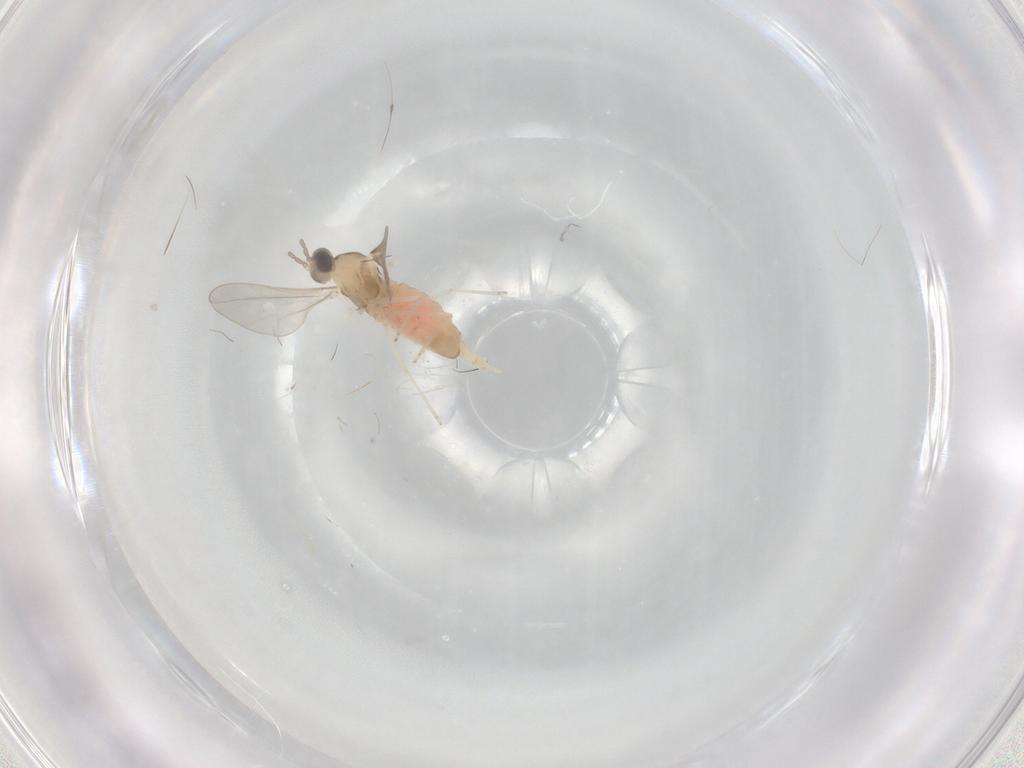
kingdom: Animalia
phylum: Arthropoda
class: Insecta
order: Diptera
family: Cecidomyiidae
